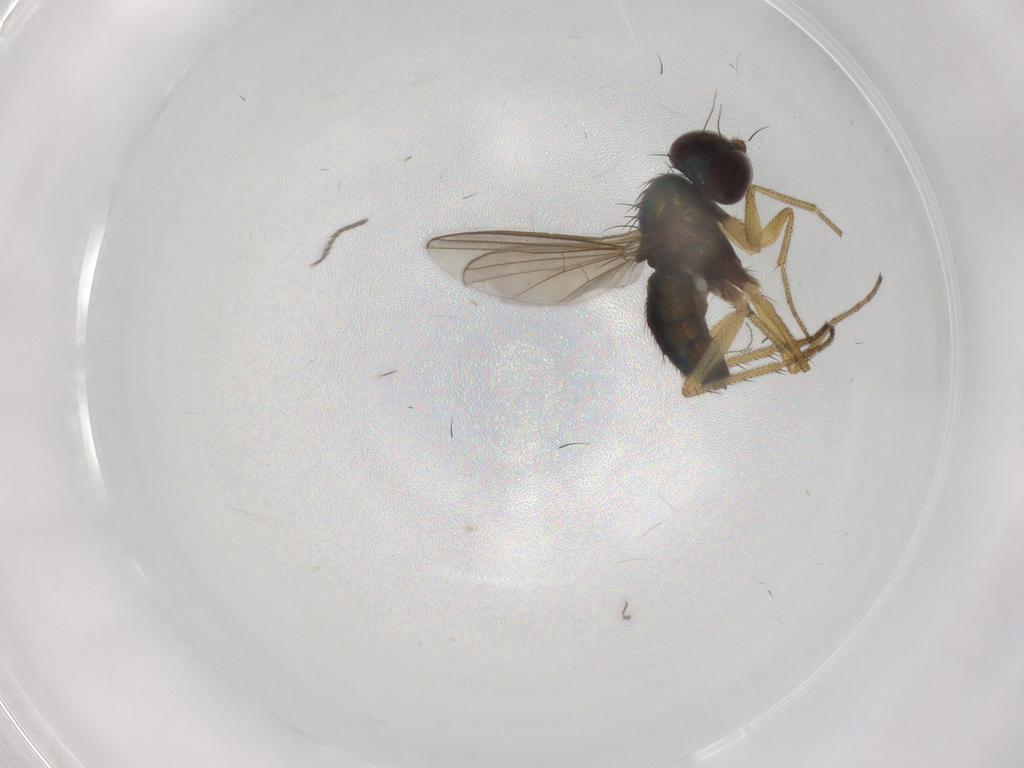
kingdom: Animalia
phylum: Arthropoda
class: Insecta
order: Diptera
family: Dolichopodidae
